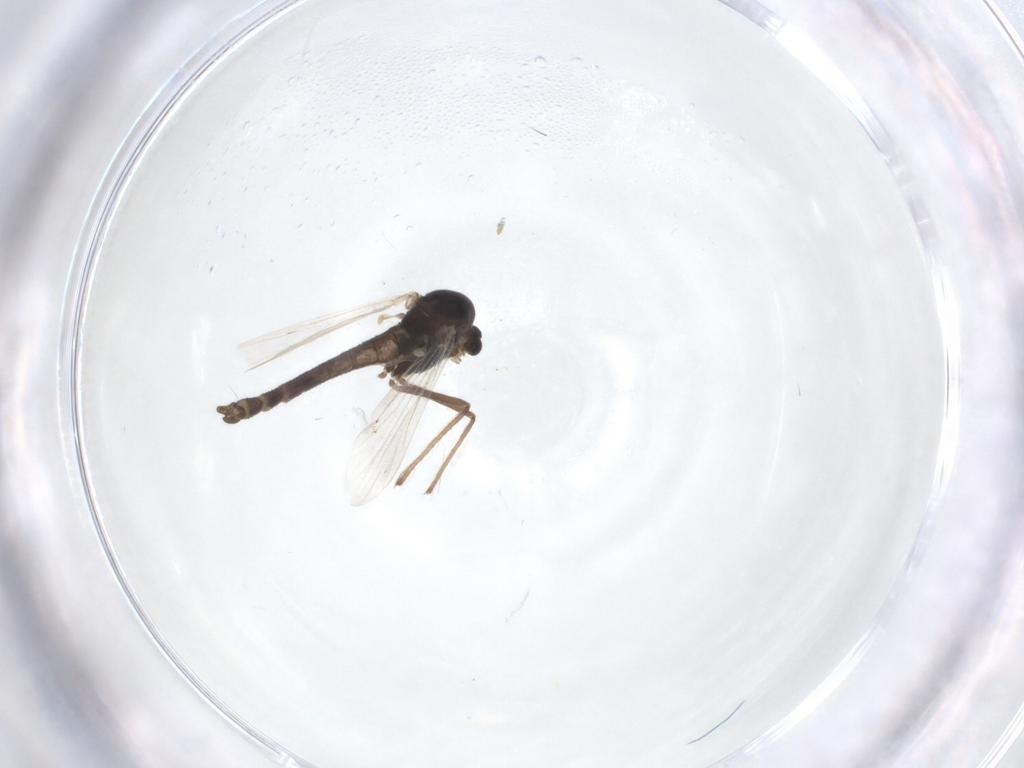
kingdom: Animalia
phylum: Arthropoda
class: Insecta
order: Diptera
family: Chironomidae
